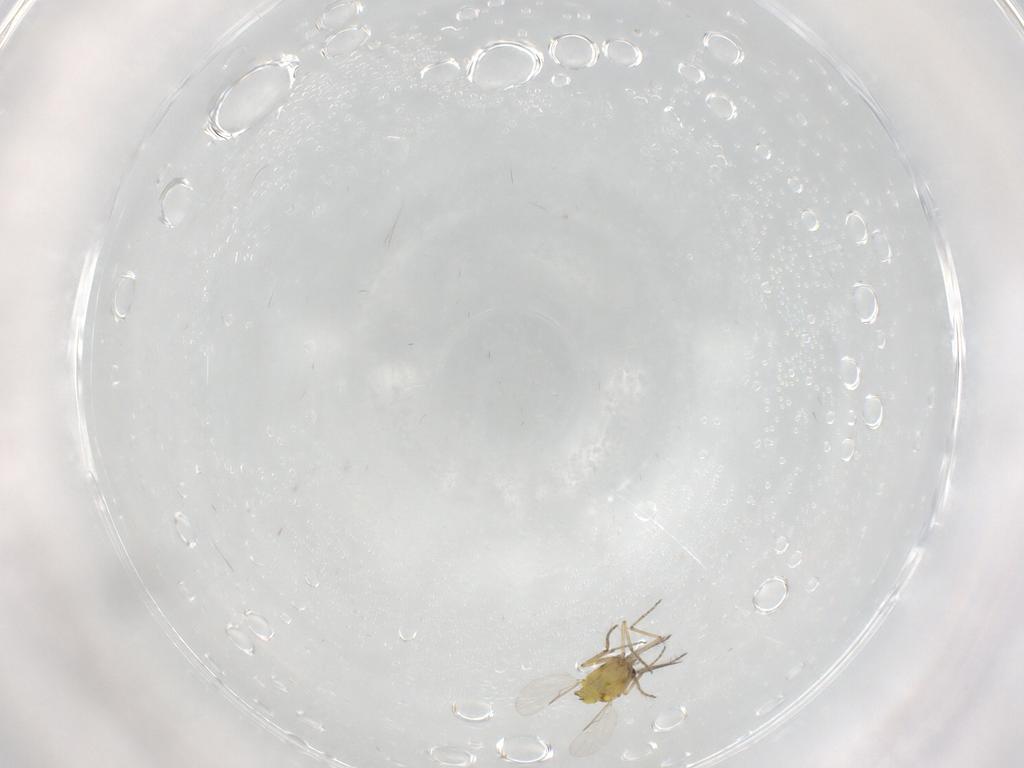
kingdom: Animalia
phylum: Arthropoda
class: Insecta
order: Diptera
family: Ceratopogonidae
